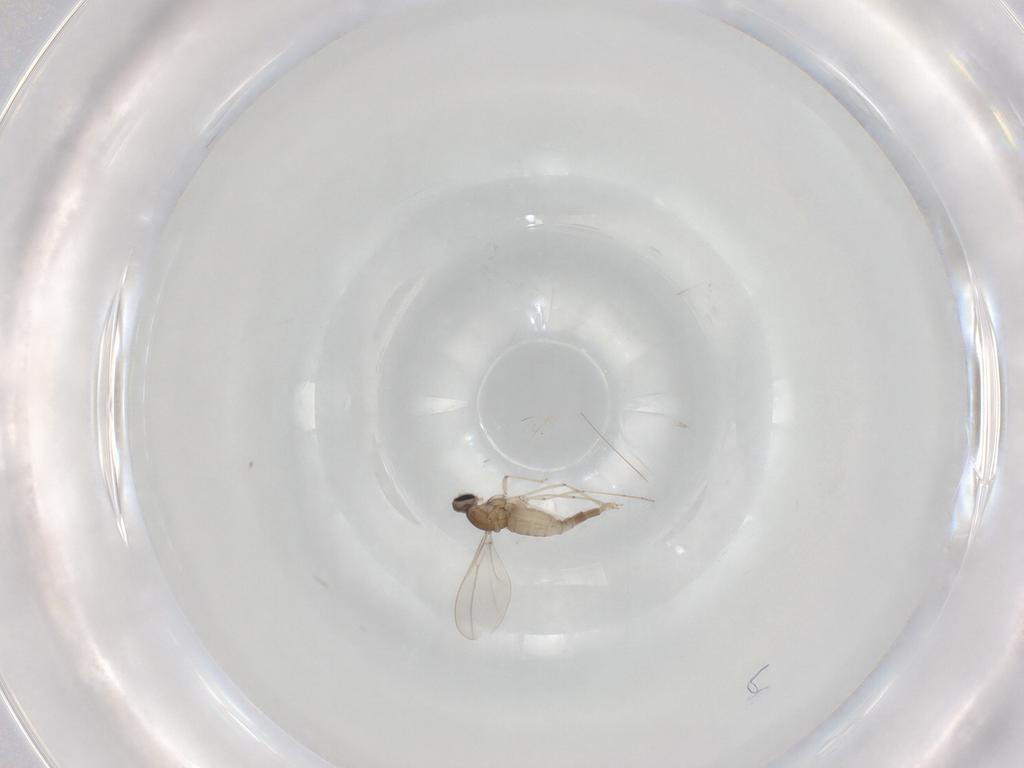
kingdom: Animalia
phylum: Arthropoda
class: Insecta
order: Diptera
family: Cecidomyiidae
